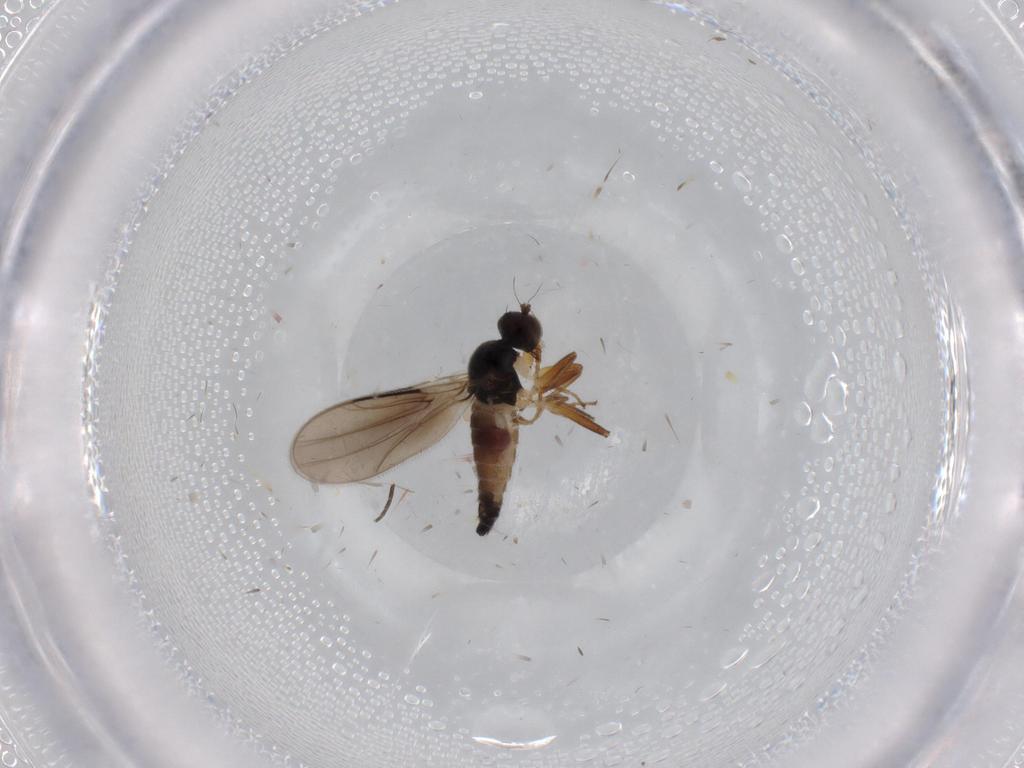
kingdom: Animalia
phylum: Arthropoda
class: Insecta
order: Diptera
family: Hybotidae
